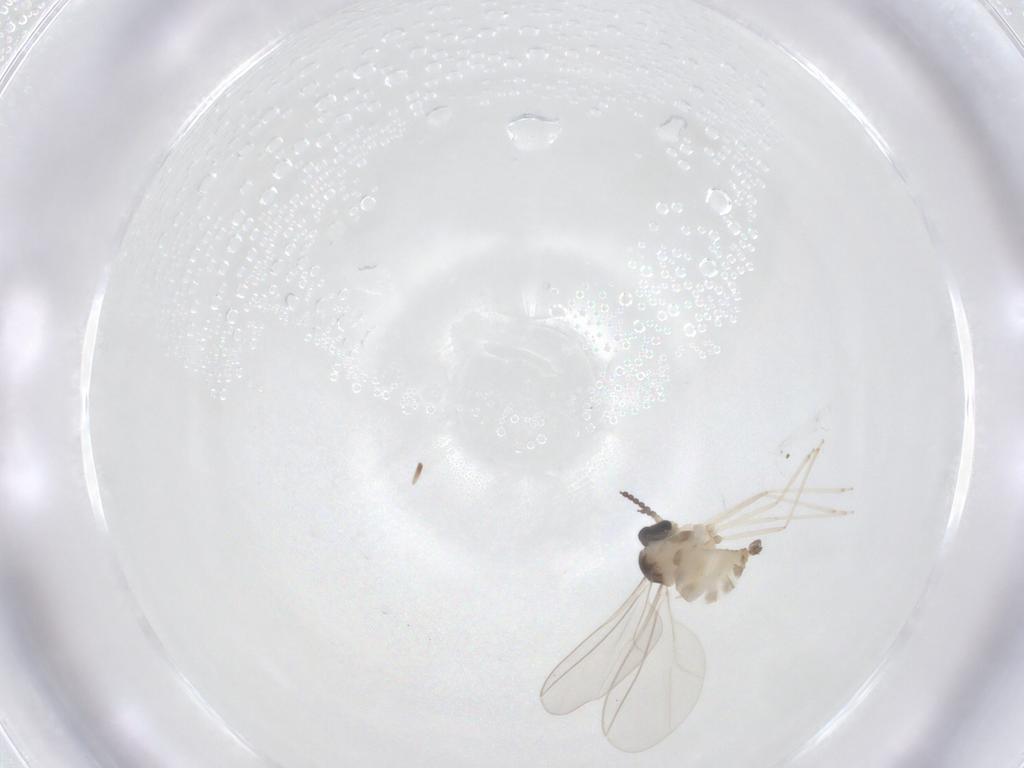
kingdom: Animalia
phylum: Arthropoda
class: Insecta
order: Diptera
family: Cecidomyiidae
